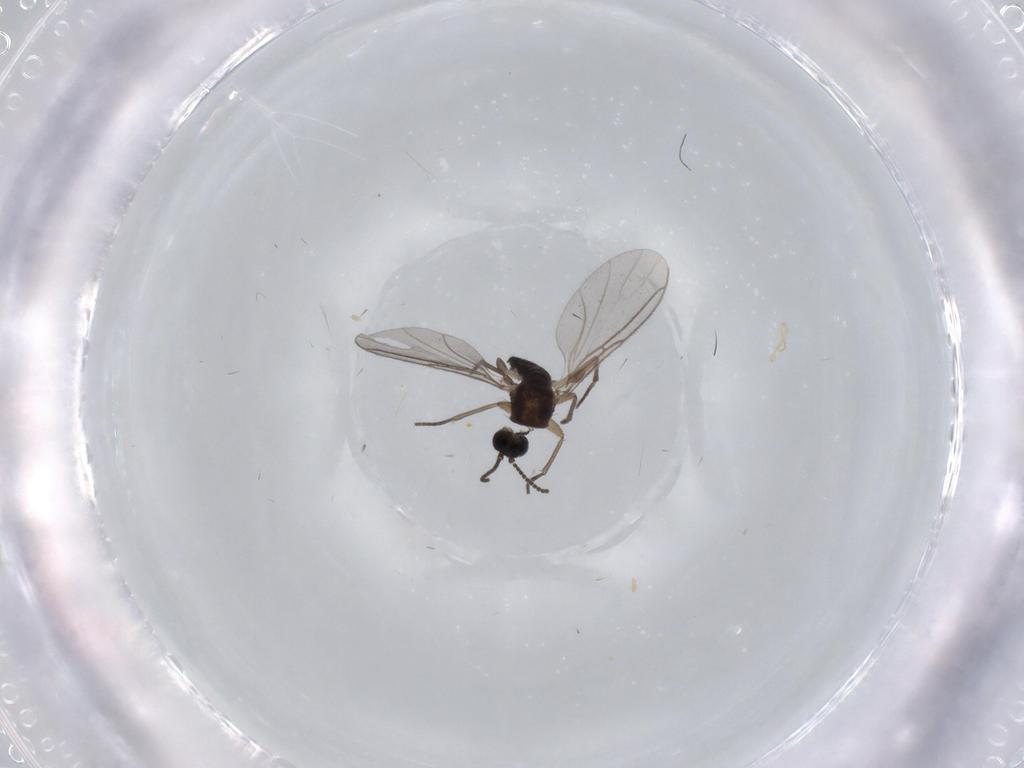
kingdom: Animalia
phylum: Arthropoda
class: Insecta
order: Diptera
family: Sciaridae
